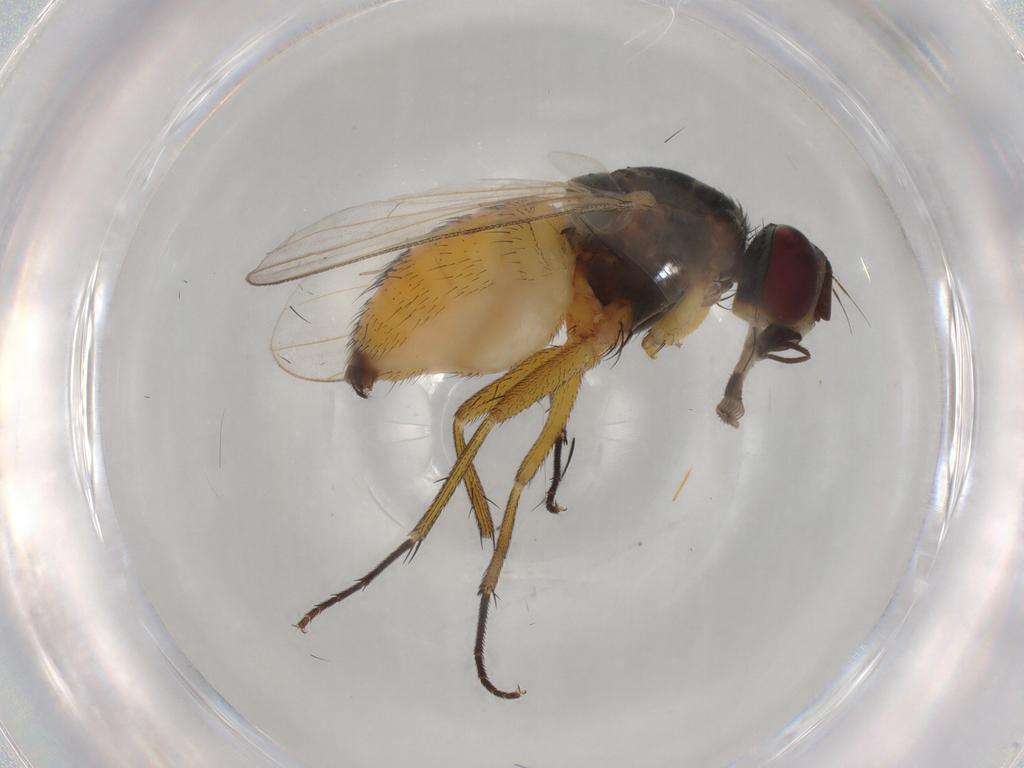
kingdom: Animalia
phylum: Arthropoda
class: Insecta
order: Diptera
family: Muscidae
